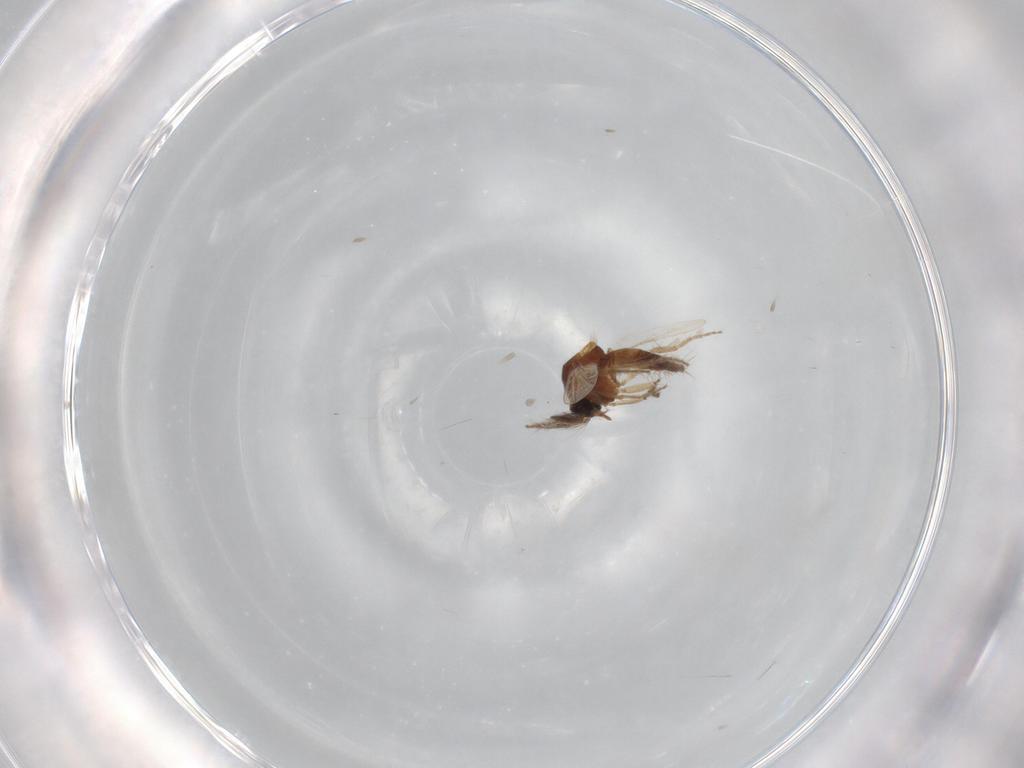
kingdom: Animalia
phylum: Arthropoda
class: Insecta
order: Diptera
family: Ceratopogonidae
